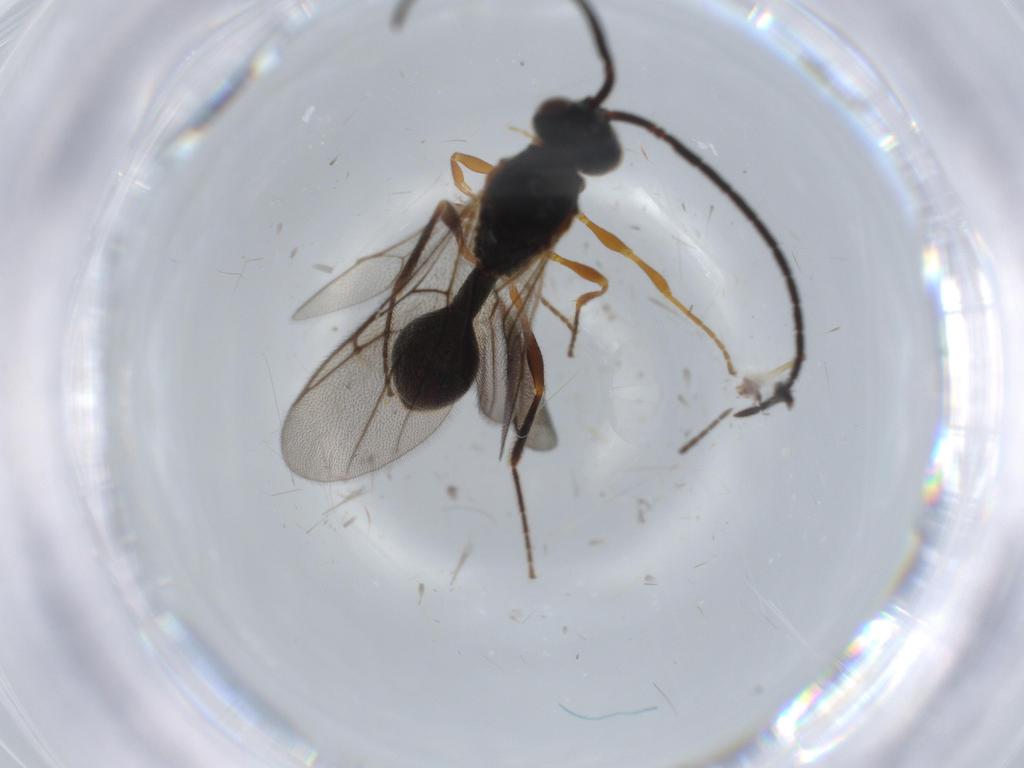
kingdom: Animalia
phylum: Arthropoda
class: Insecta
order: Hymenoptera
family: Diapriidae
